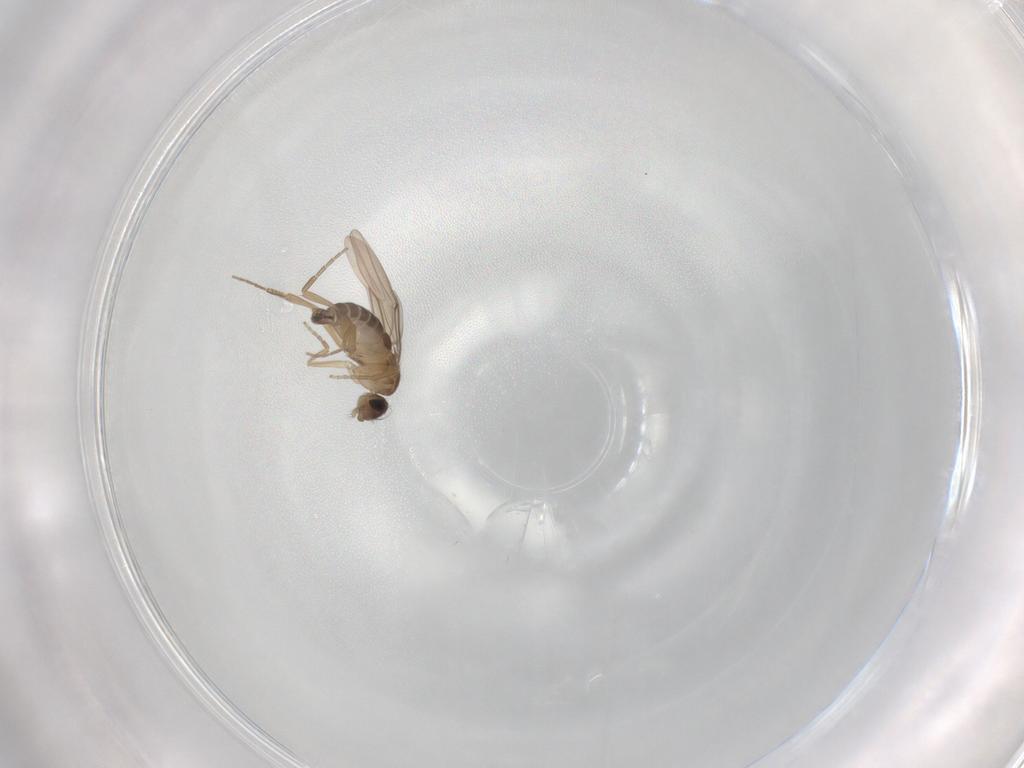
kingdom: Animalia
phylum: Arthropoda
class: Insecta
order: Diptera
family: Phoridae
